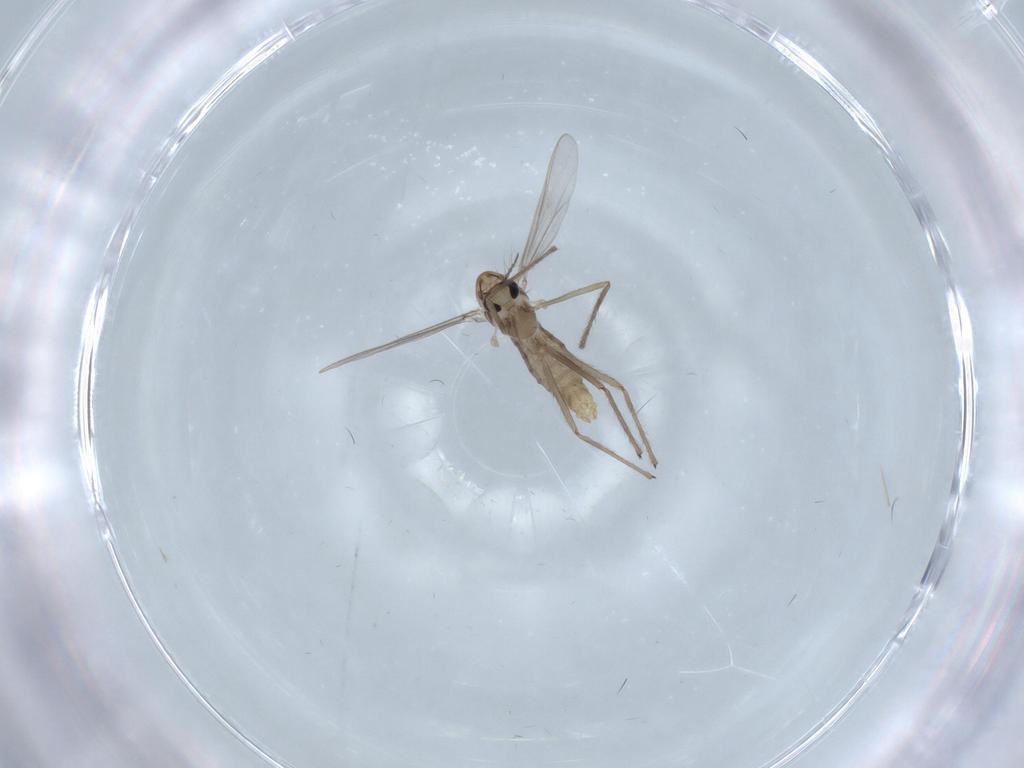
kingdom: Animalia
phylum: Arthropoda
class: Insecta
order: Diptera
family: Chironomidae
